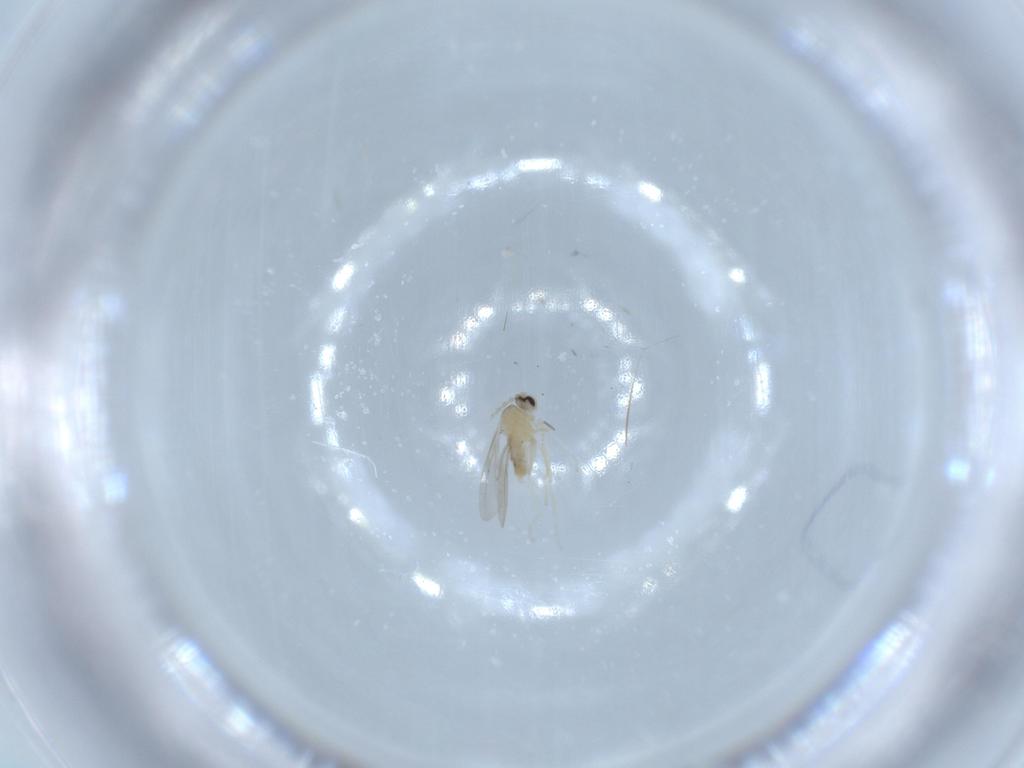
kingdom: Animalia
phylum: Arthropoda
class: Insecta
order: Diptera
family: Cecidomyiidae
